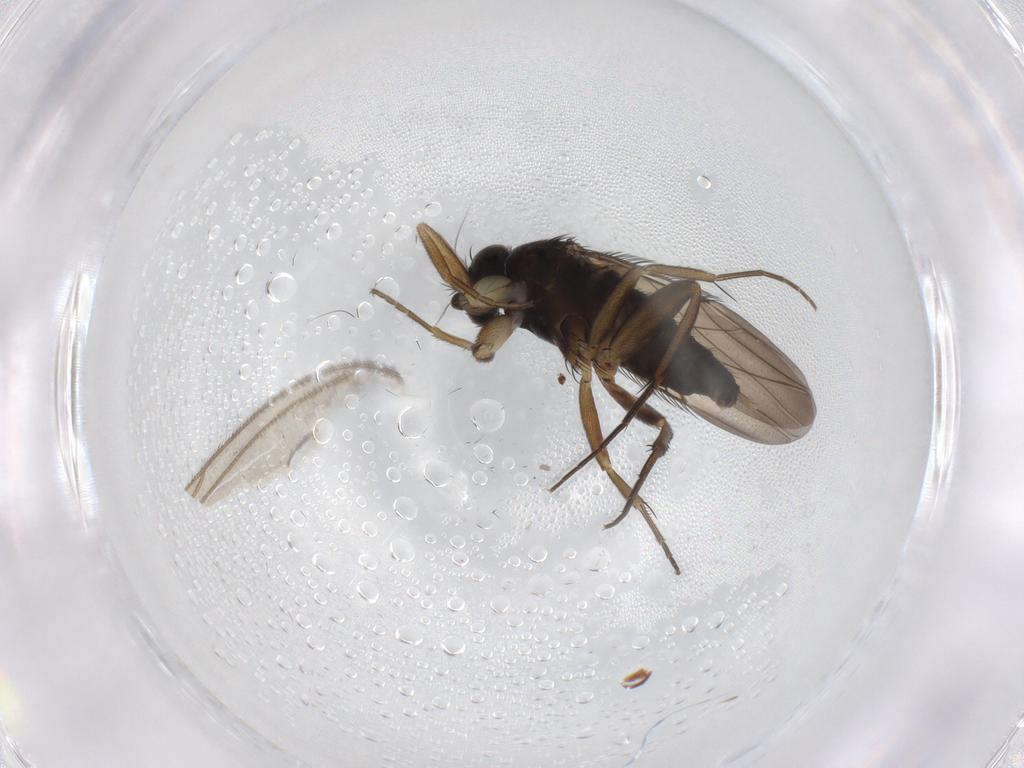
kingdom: Animalia
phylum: Arthropoda
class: Insecta
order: Diptera
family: Phoridae
